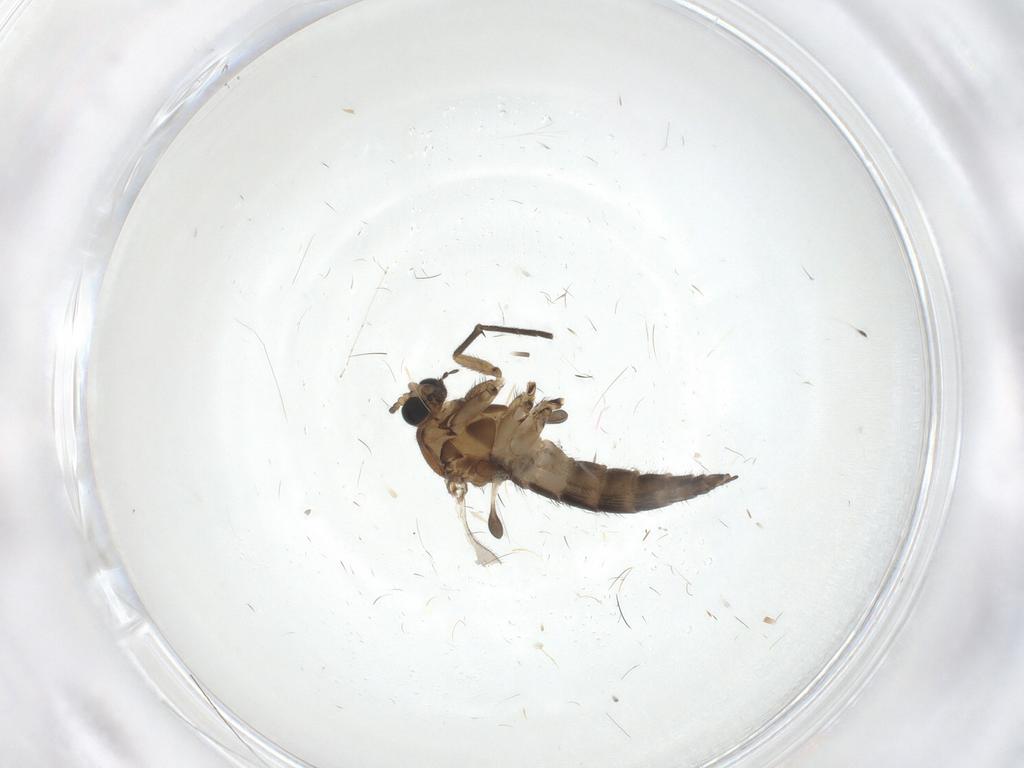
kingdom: Animalia
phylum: Arthropoda
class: Insecta
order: Diptera
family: Sciaridae
